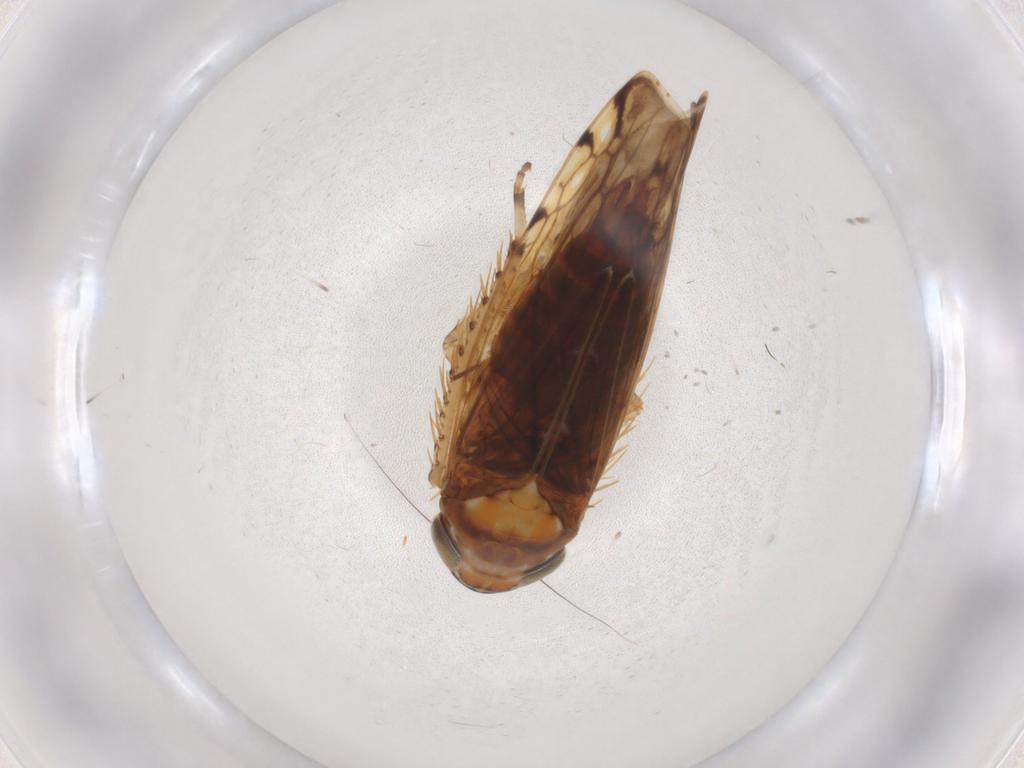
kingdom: Animalia
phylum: Arthropoda
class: Insecta
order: Hemiptera
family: Cicadellidae
